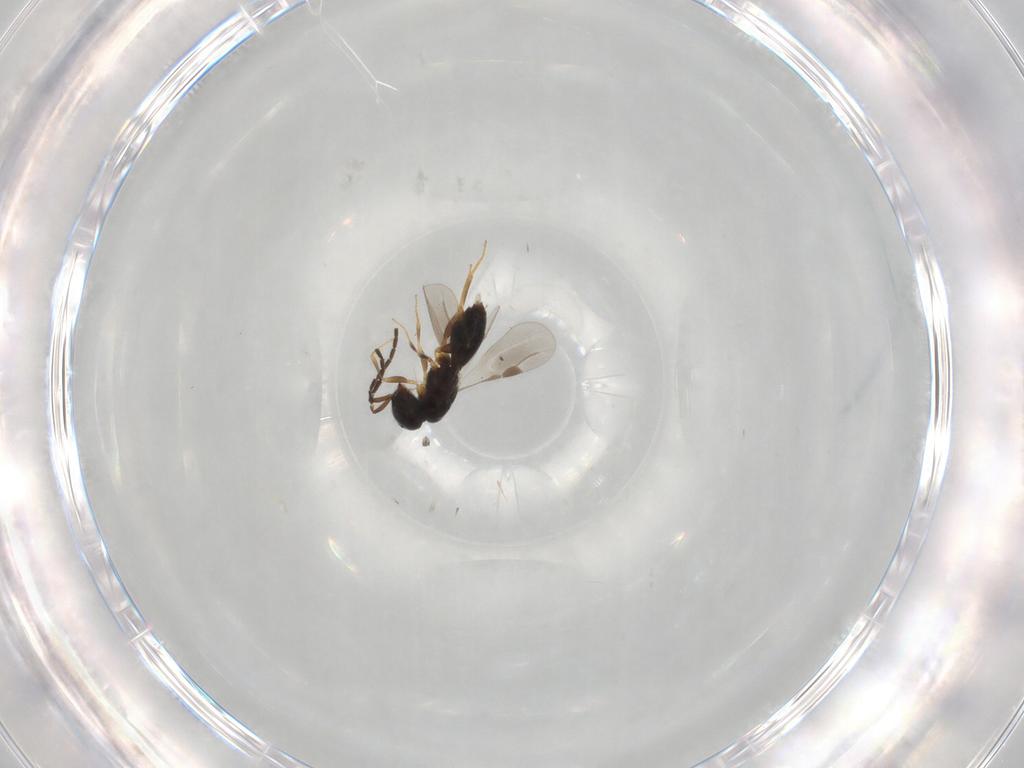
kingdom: Animalia
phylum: Arthropoda
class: Insecta
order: Hymenoptera
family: Megaspilidae
